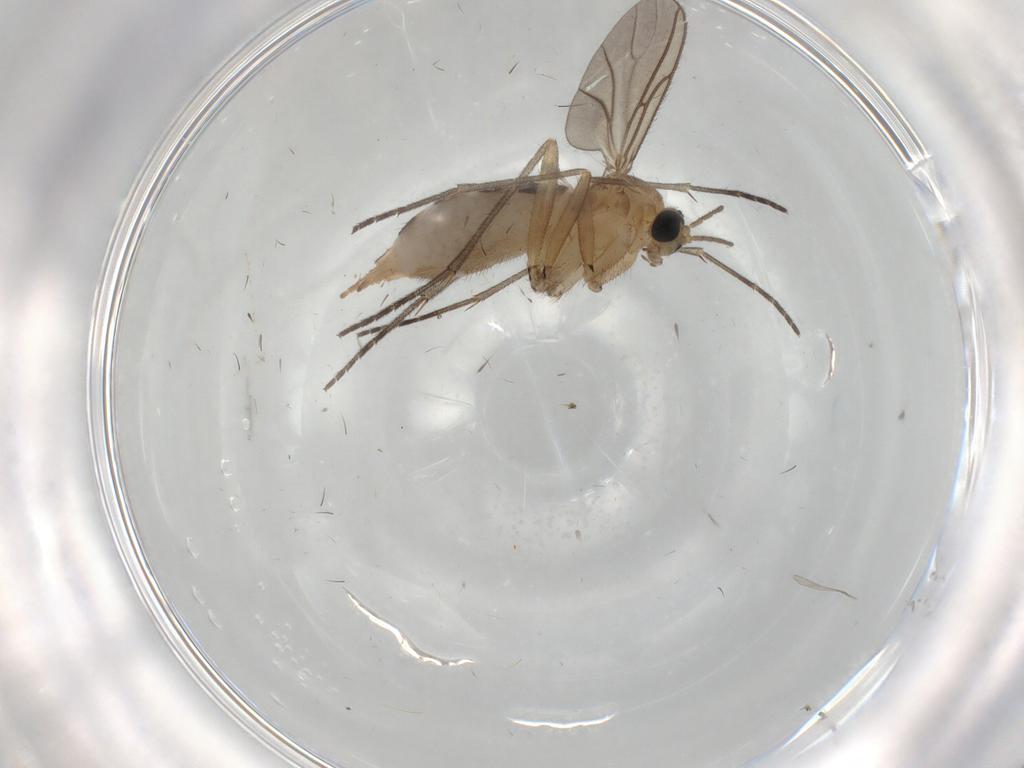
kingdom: Animalia
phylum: Arthropoda
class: Insecta
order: Diptera
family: Sciaridae
